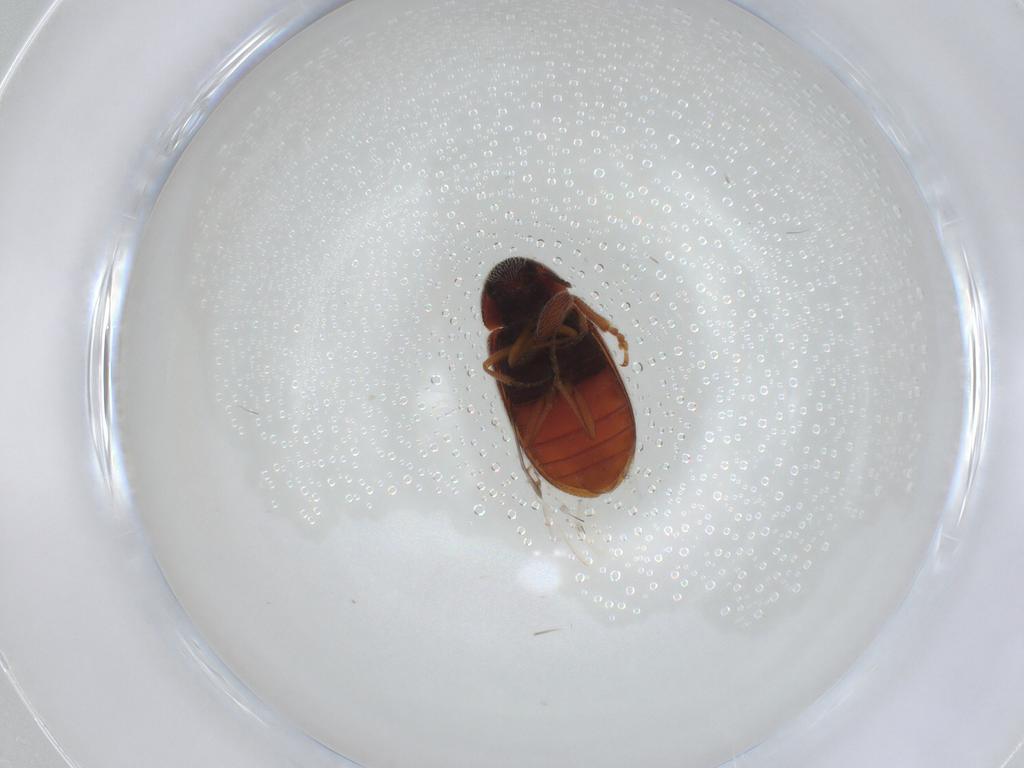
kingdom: Animalia
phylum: Arthropoda
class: Insecta
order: Coleoptera
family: Rhadalidae
